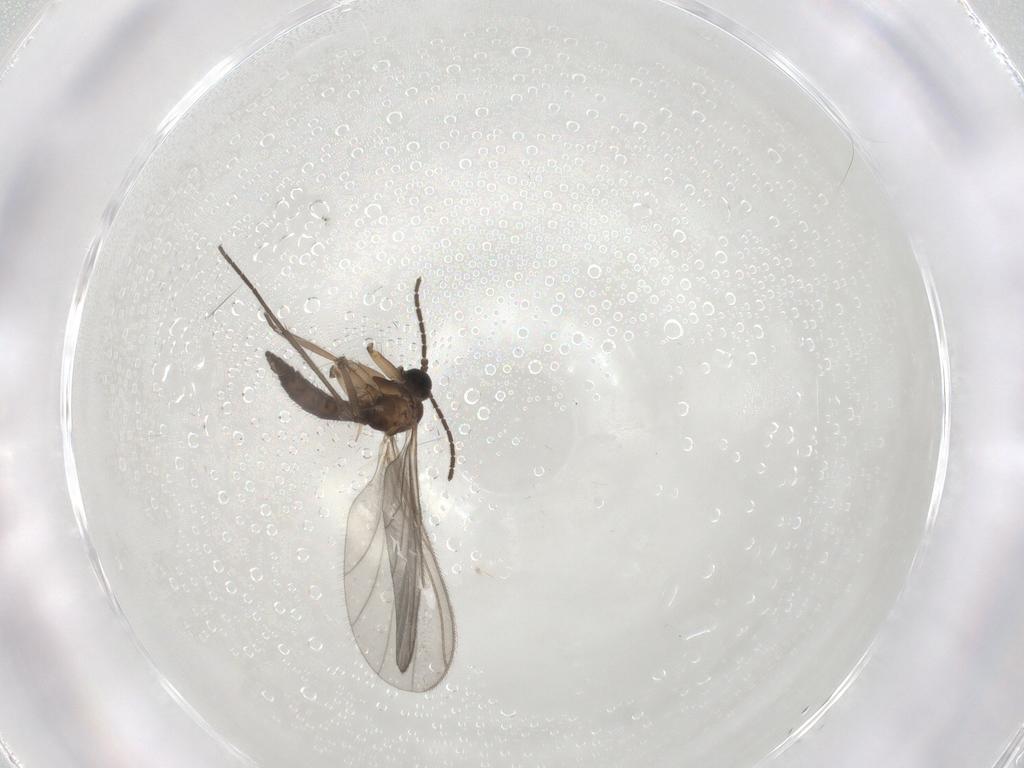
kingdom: Animalia
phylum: Arthropoda
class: Insecta
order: Diptera
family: Sciaridae
